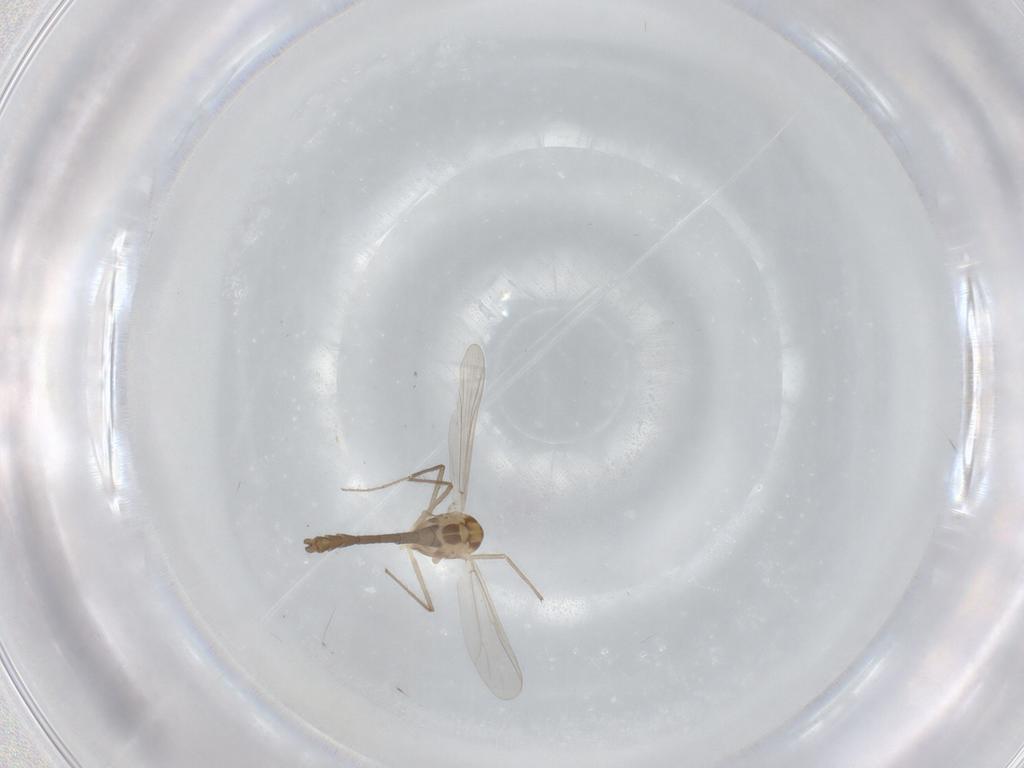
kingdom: Animalia
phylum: Arthropoda
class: Insecta
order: Diptera
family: Chironomidae
